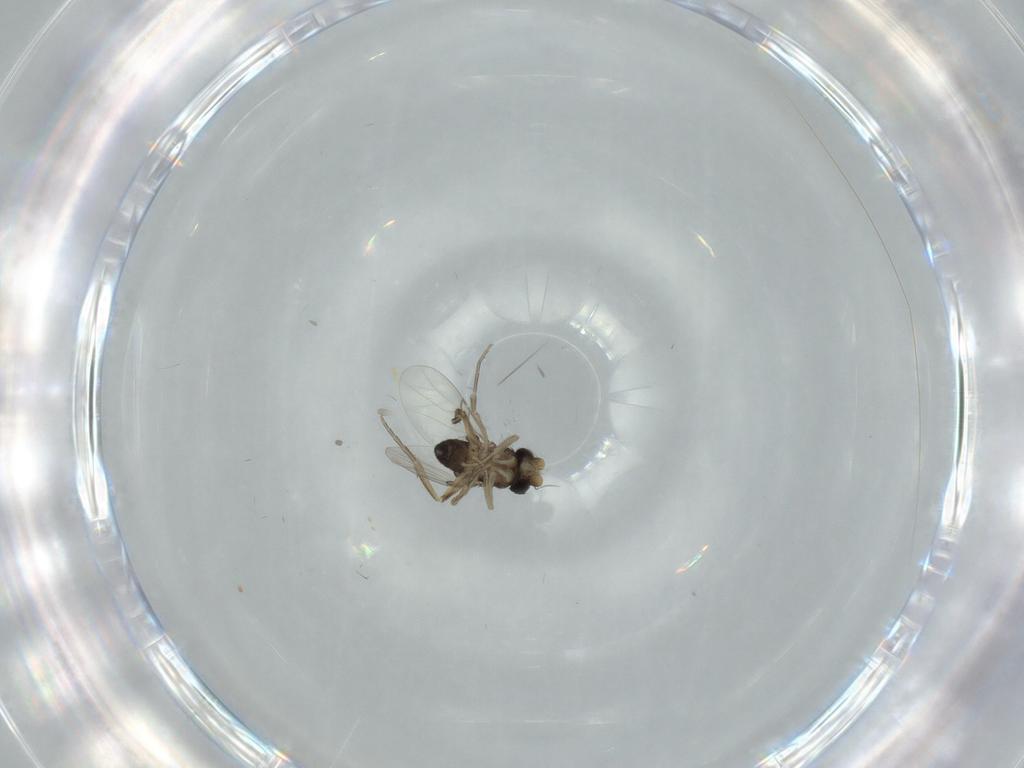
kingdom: Animalia
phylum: Arthropoda
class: Insecta
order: Diptera
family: Phoridae
